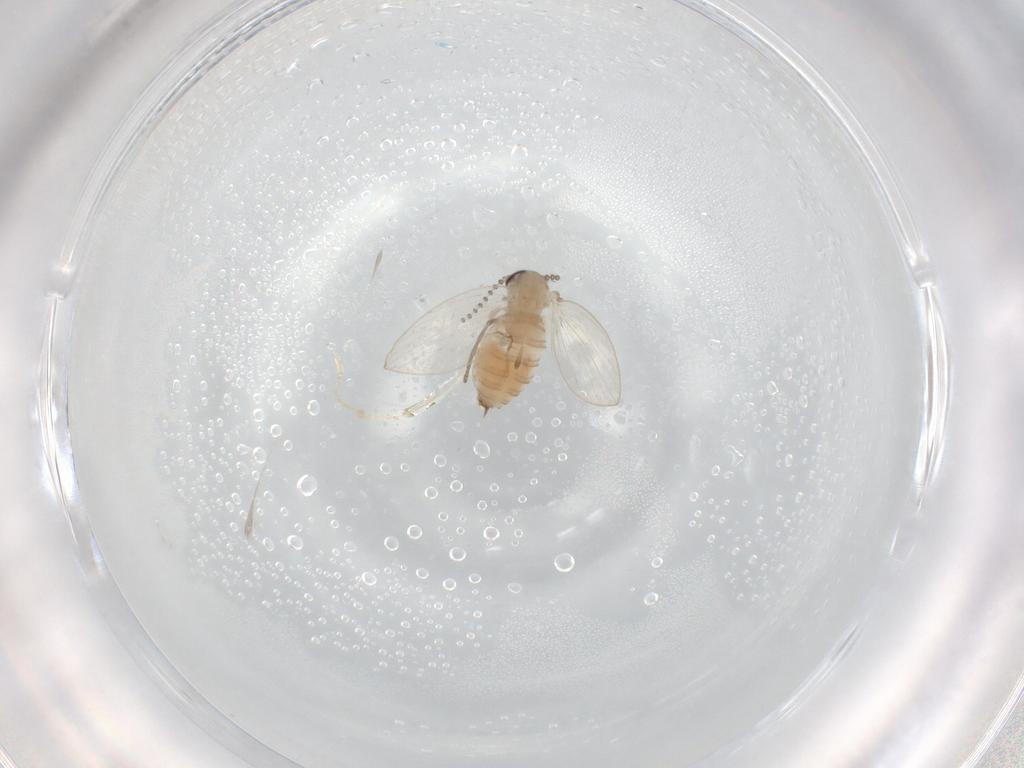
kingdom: Animalia
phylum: Arthropoda
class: Insecta
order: Diptera
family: Psychodidae
